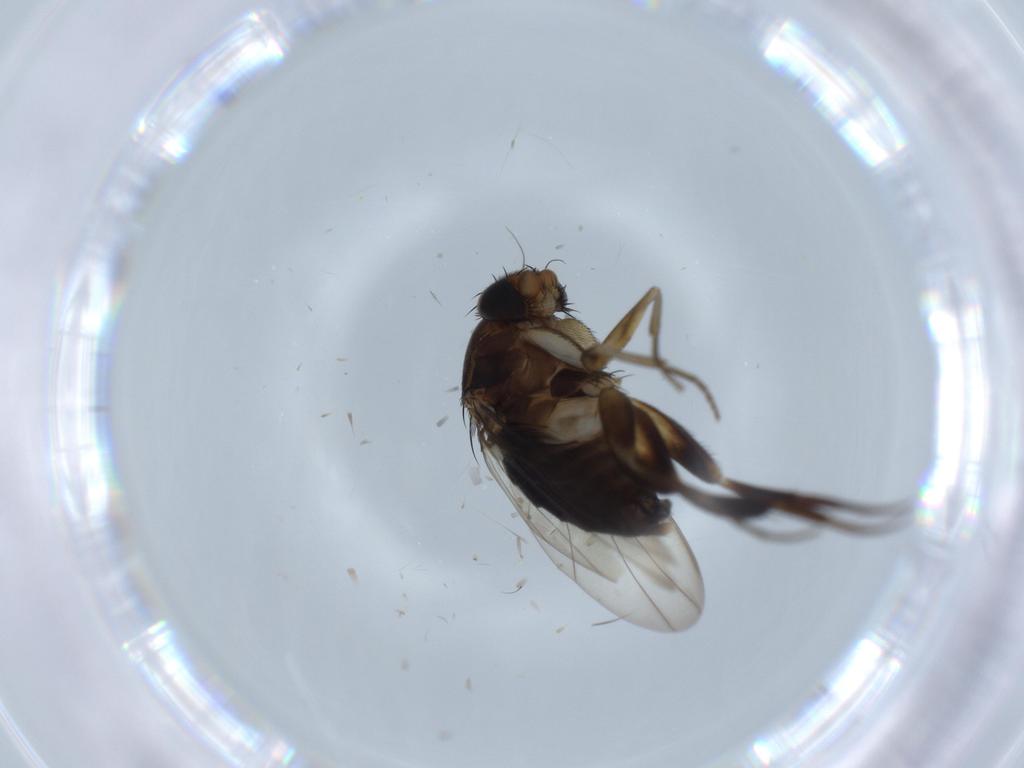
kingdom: Animalia
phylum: Arthropoda
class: Insecta
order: Diptera
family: Phoridae
